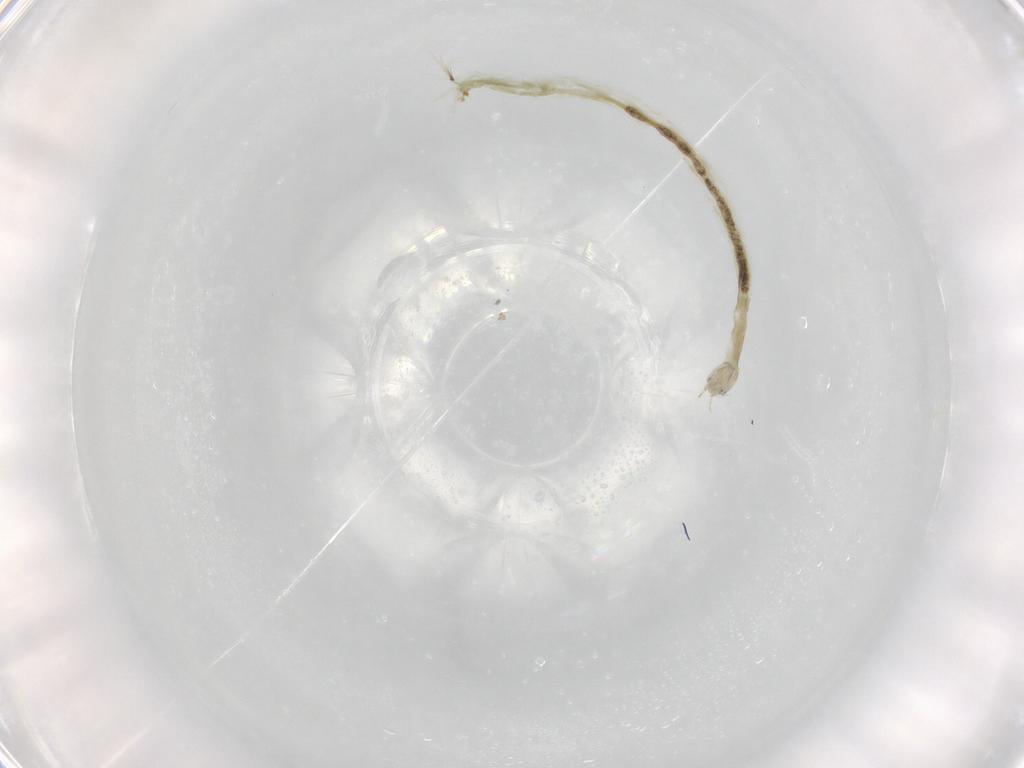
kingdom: Animalia
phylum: Arthropoda
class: Insecta
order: Diptera
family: Chironomidae
